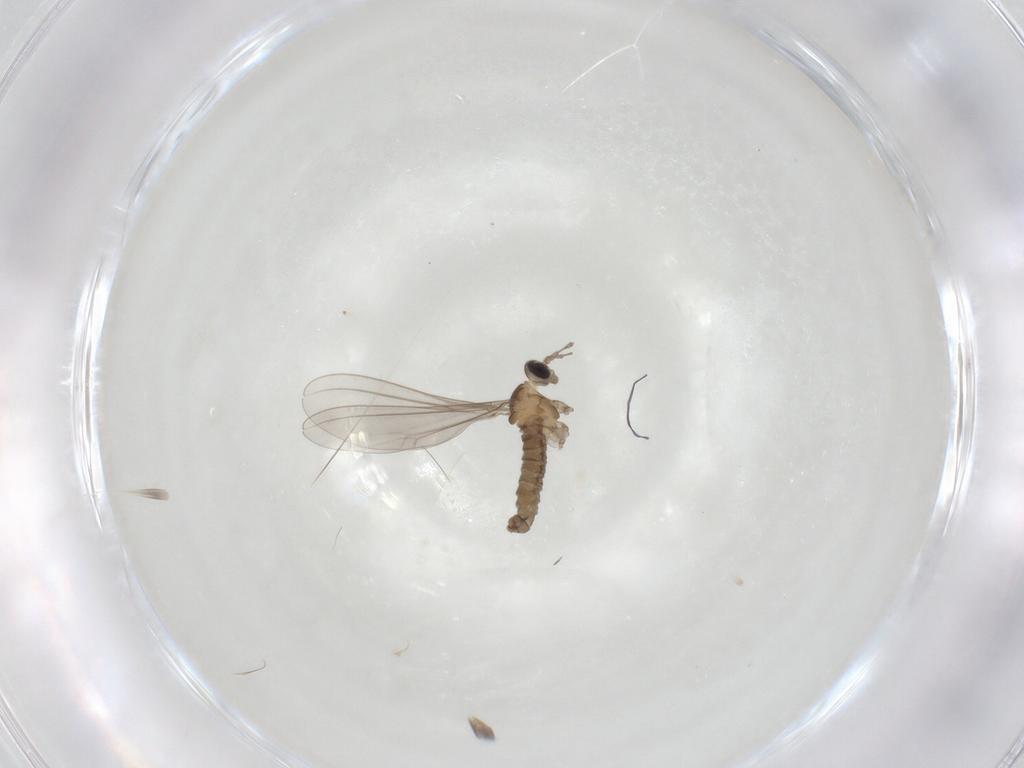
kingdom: Animalia
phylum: Arthropoda
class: Insecta
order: Diptera
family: Cecidomyiidae
